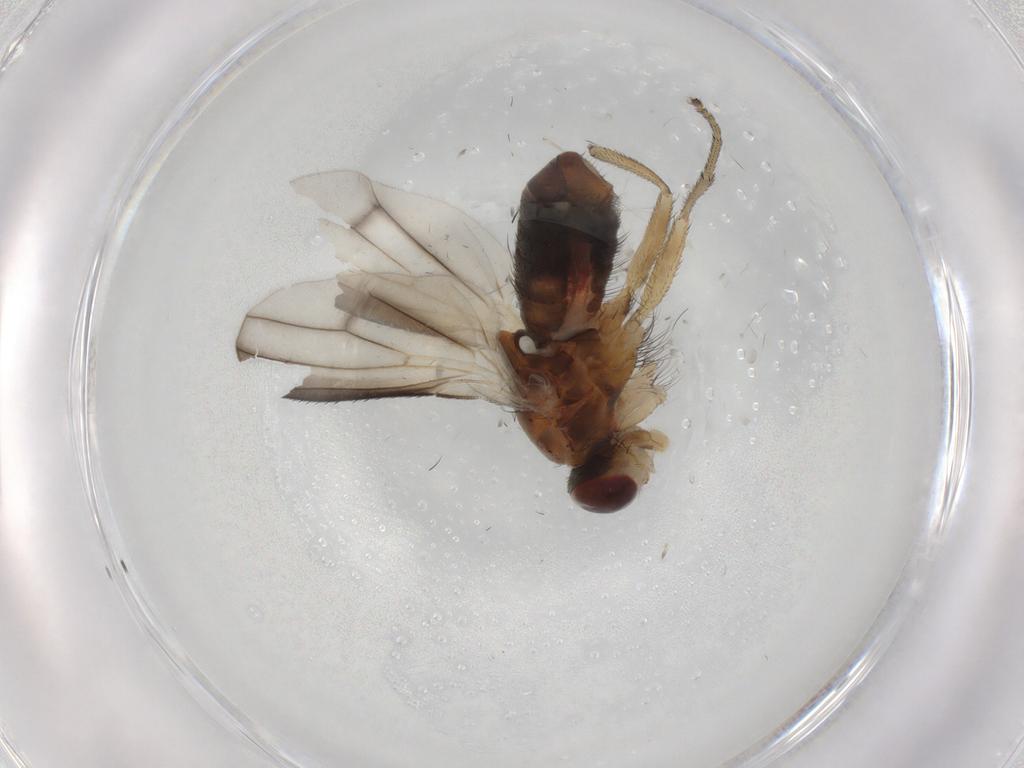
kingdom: Animalia
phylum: Arthropoda
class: Insecta
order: Diptera
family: Heleomyzidae
